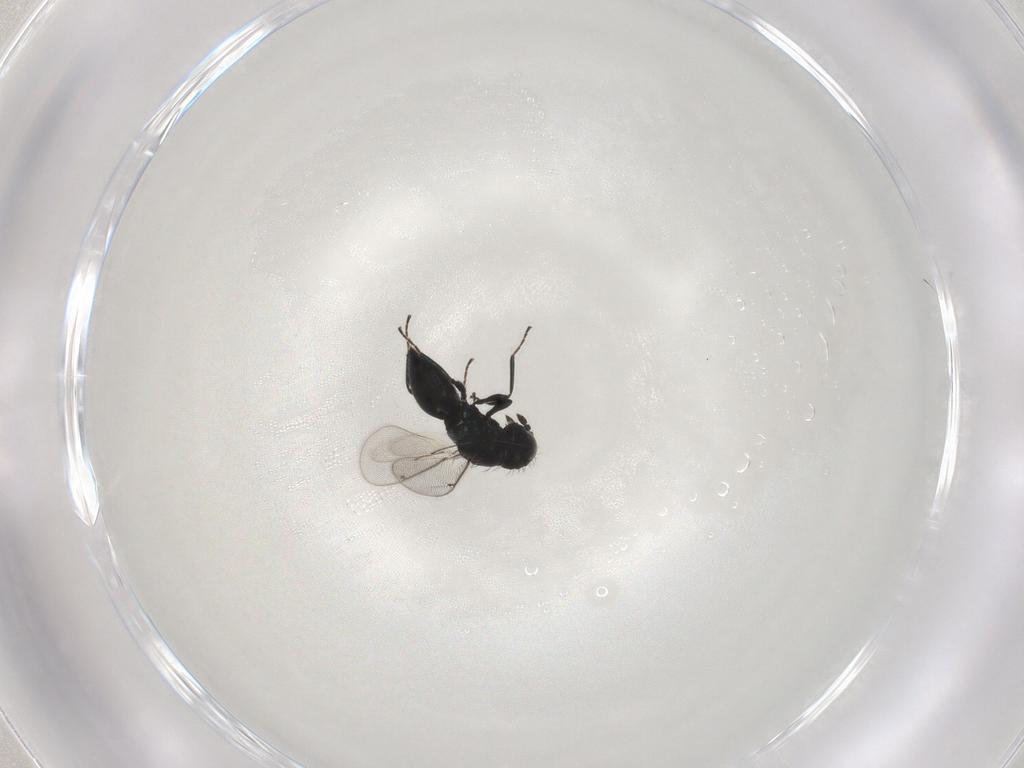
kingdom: Animalia
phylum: Arthropoda
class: Insecta
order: Hymenoptera
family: Eulophidae
